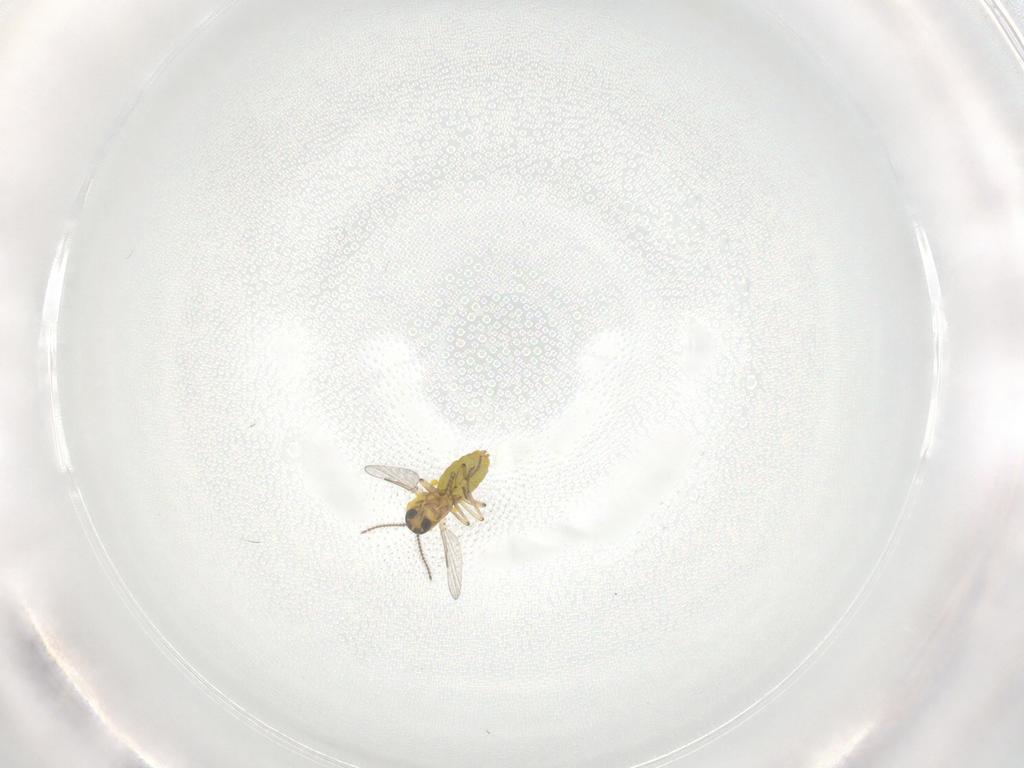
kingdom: Animalia
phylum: Arthropoda
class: Insecta
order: Diptera
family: Ceratopogonidae
